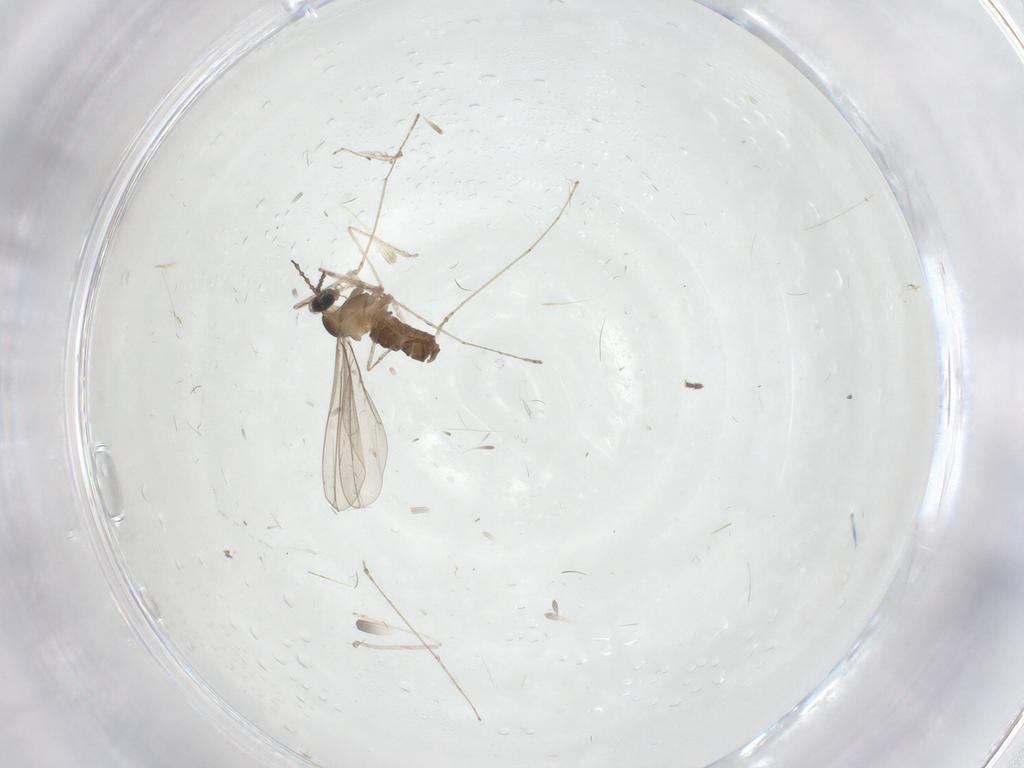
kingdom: Animalia
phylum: Arthropoda
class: Insecta
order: Diptera
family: Cecidomyiidae
